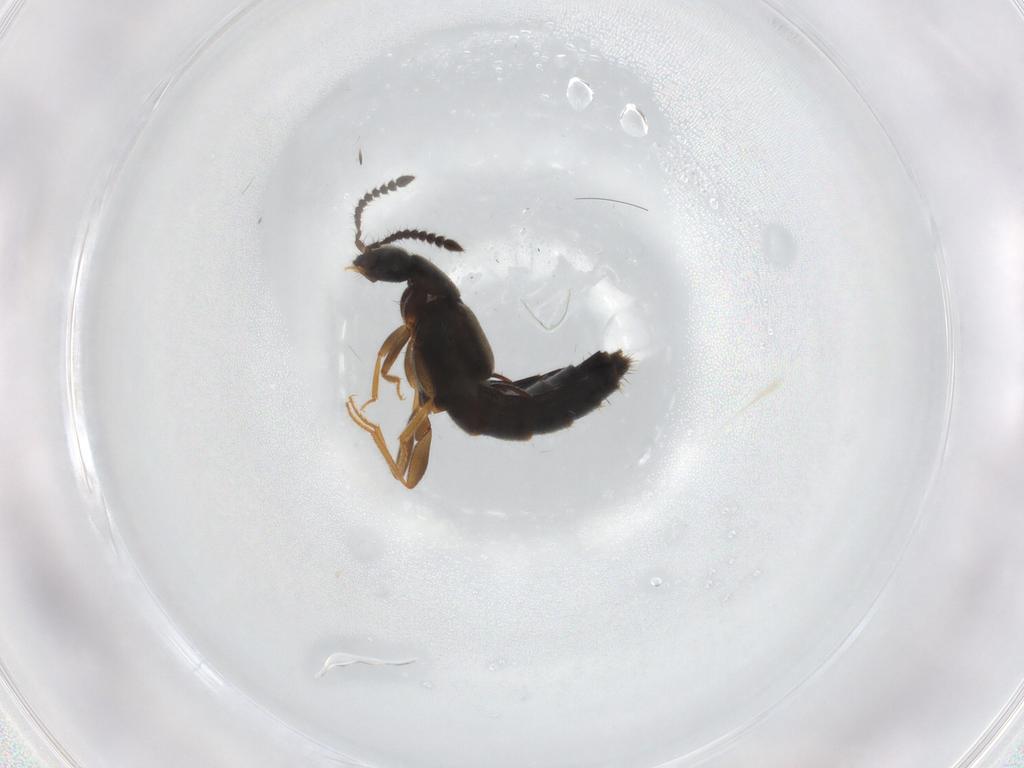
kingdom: Animalia
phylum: Arthropoda
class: Insecta
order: Coleoptera
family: Staphylinidae
